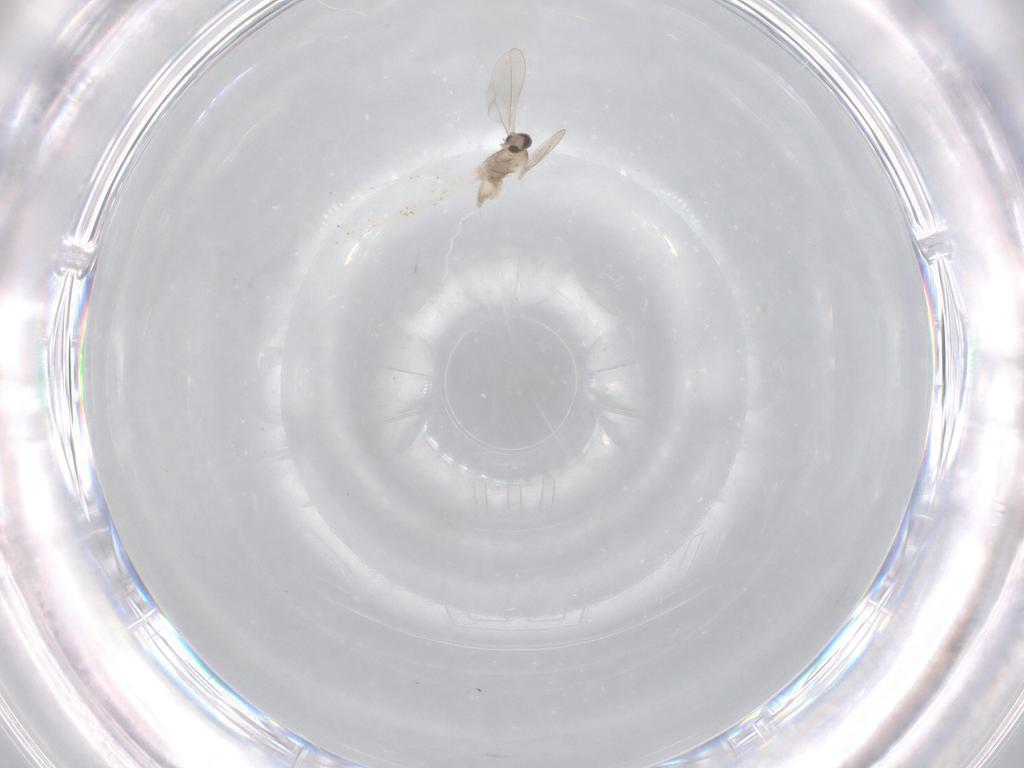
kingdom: Animalia
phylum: Arthropoda
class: Insecta
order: Diptera
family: Cecidomyiidae
